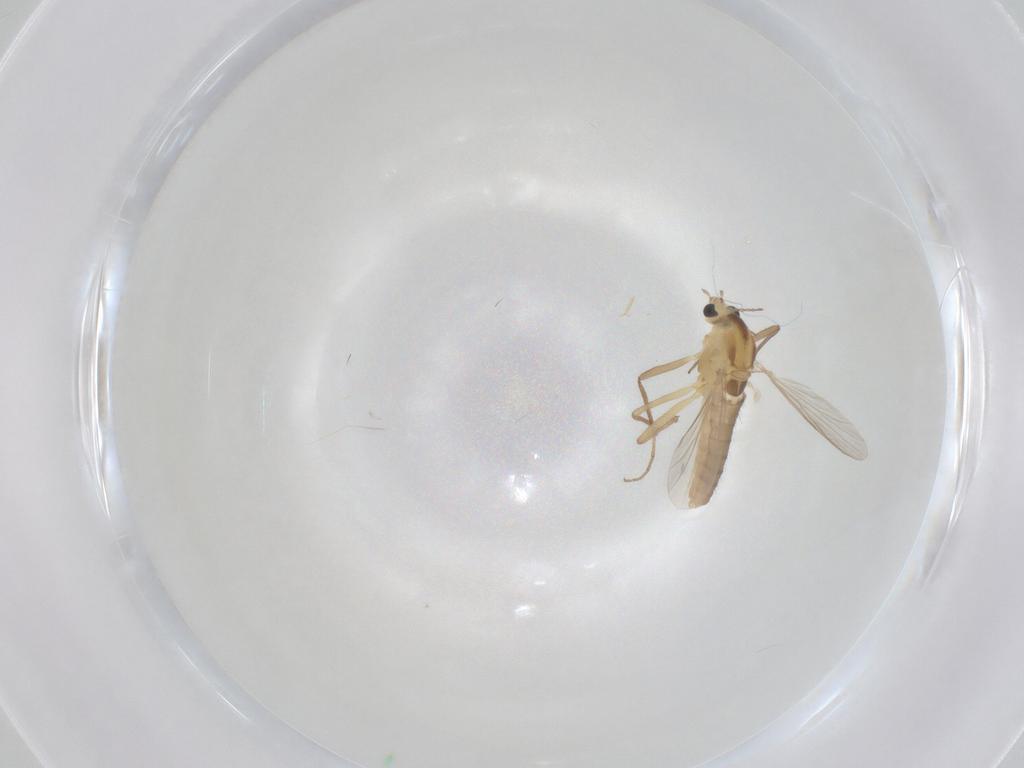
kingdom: Animalia
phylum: Arthropoda
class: Insecta
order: Diptera
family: Chironomidae
